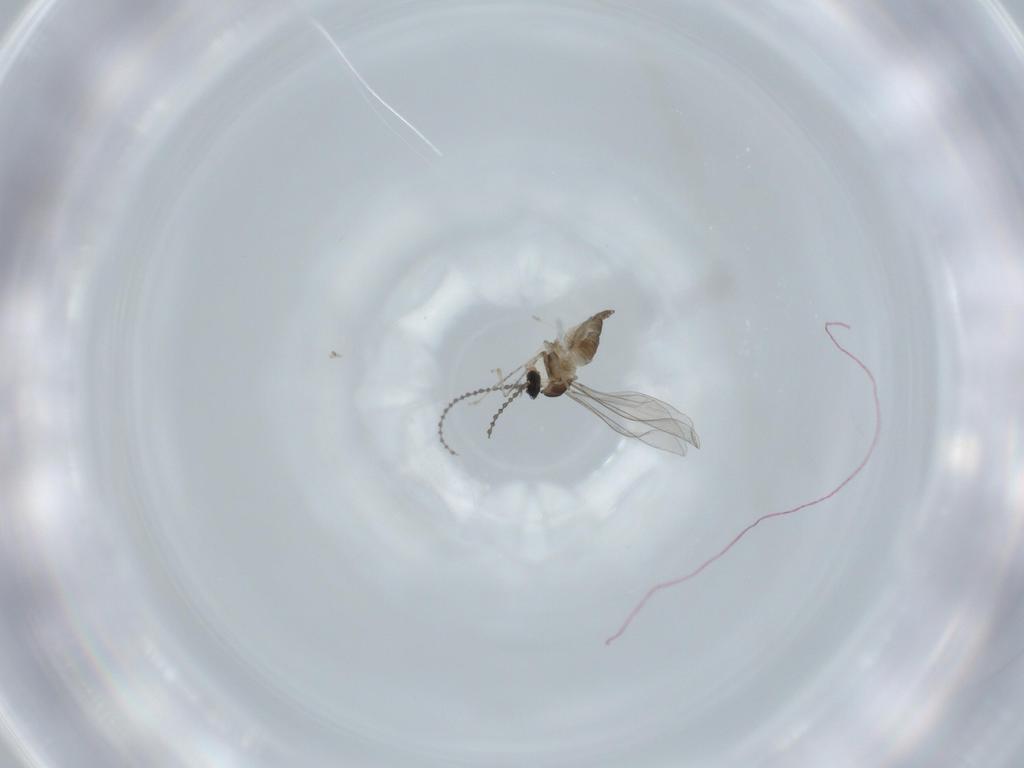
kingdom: Animalia
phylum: Arthropoda
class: Insecta
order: Diptera
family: Cecidomyiidae
